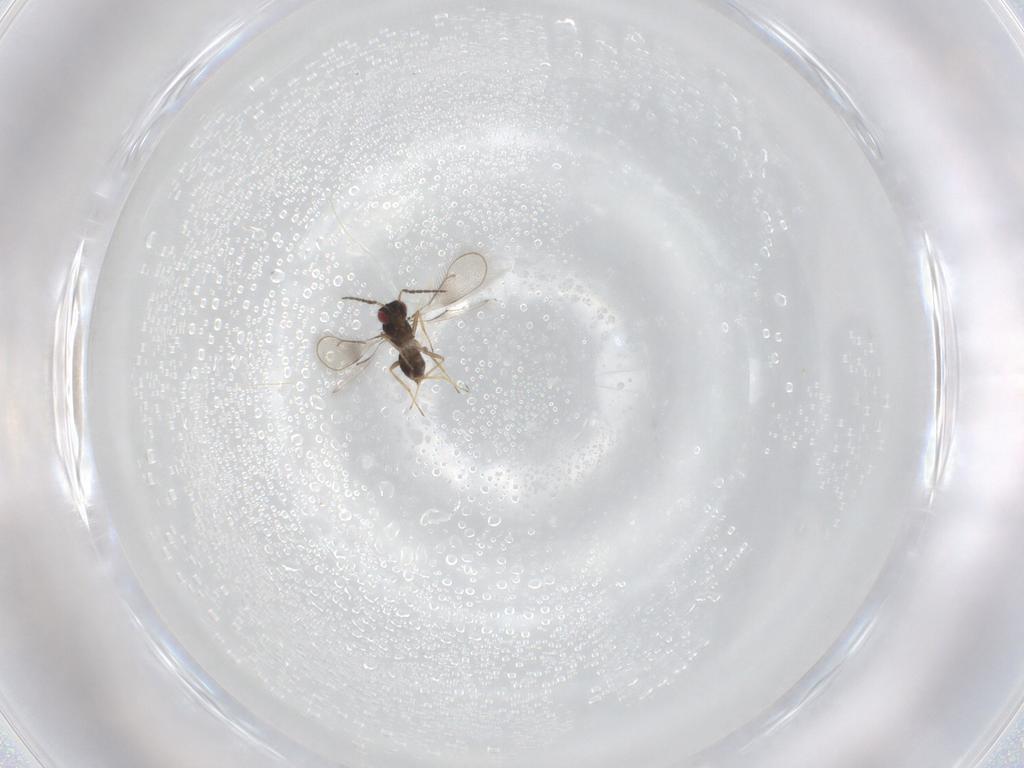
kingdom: Animalia
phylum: Arthropoda
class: Insecta
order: Hymenoptera
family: Eulophidae
